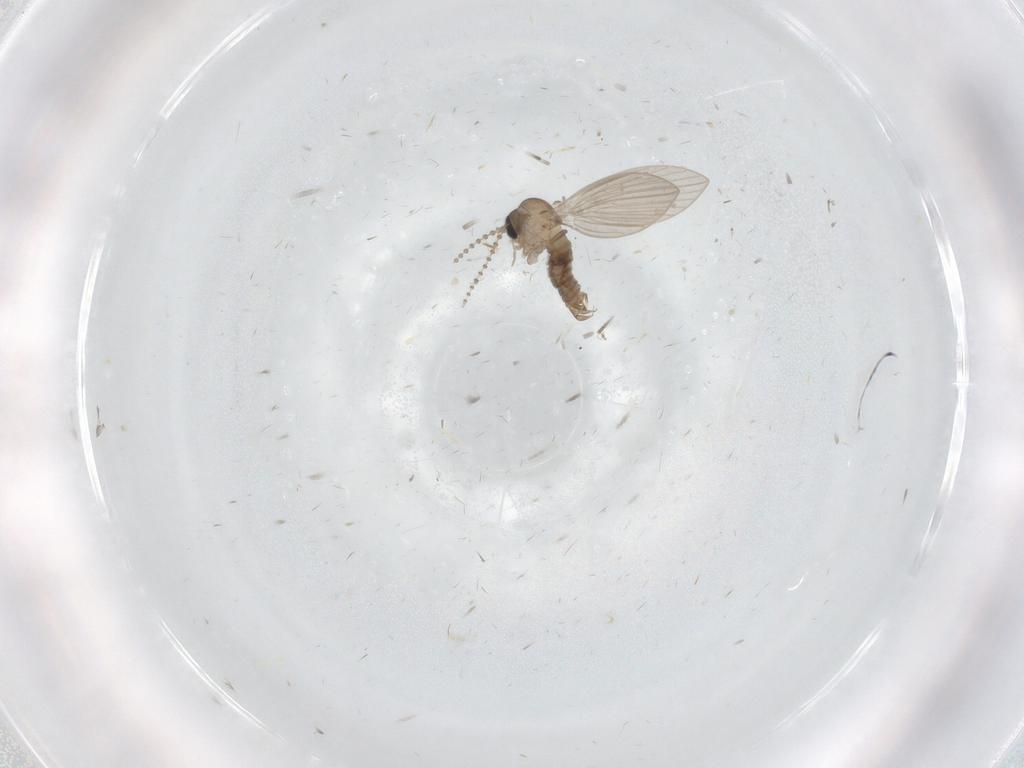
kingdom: Animalia
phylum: Arthropoda
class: Insecta
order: Diptera
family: Psychodidae
